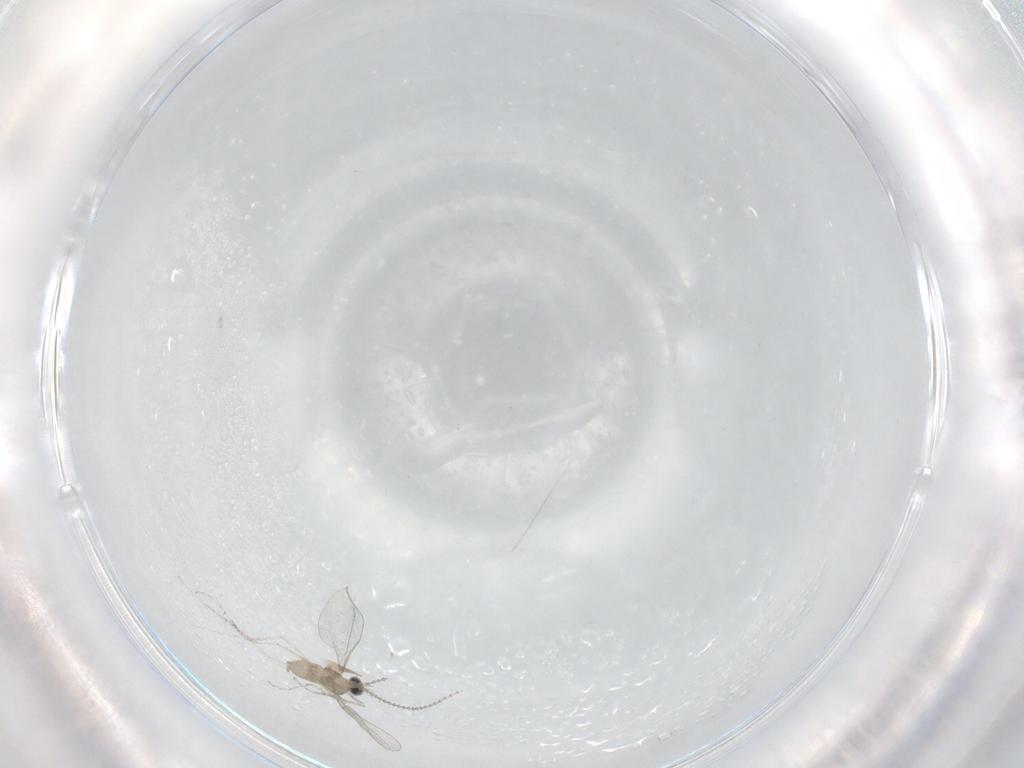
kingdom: Animalia
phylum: Arthropoda
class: Insecta
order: Diptera
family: Cecidomyiidae
